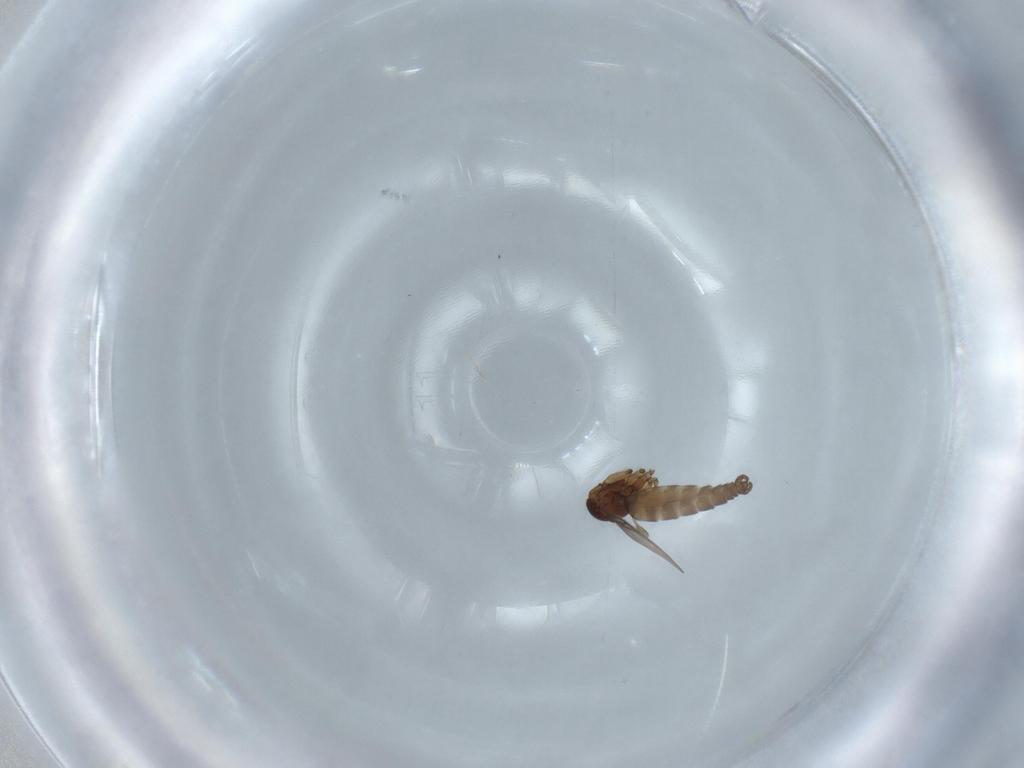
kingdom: Animalia
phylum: Arthropoda
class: Insecta
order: Diptera
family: Sciaridae
